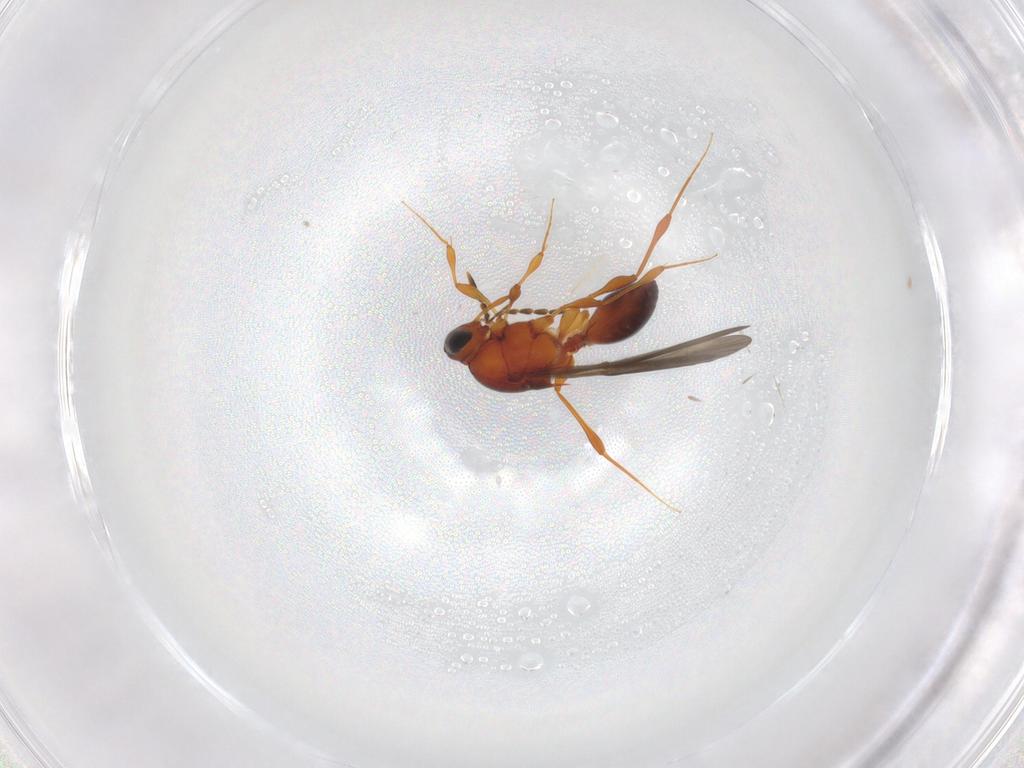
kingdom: Animalia
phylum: Arthropoda
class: Insecta
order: Hymenoptera
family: Platygastridae
